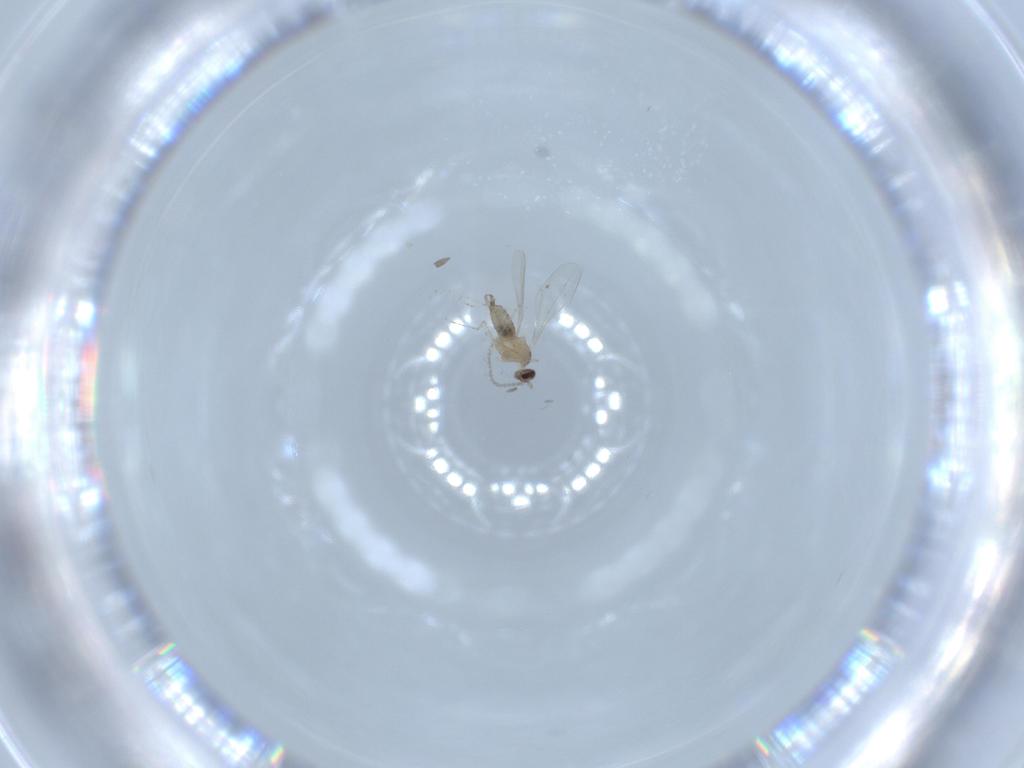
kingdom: Animalia
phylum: Arthropoda
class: Insecta
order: Diptera
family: Cecidomyiidae
